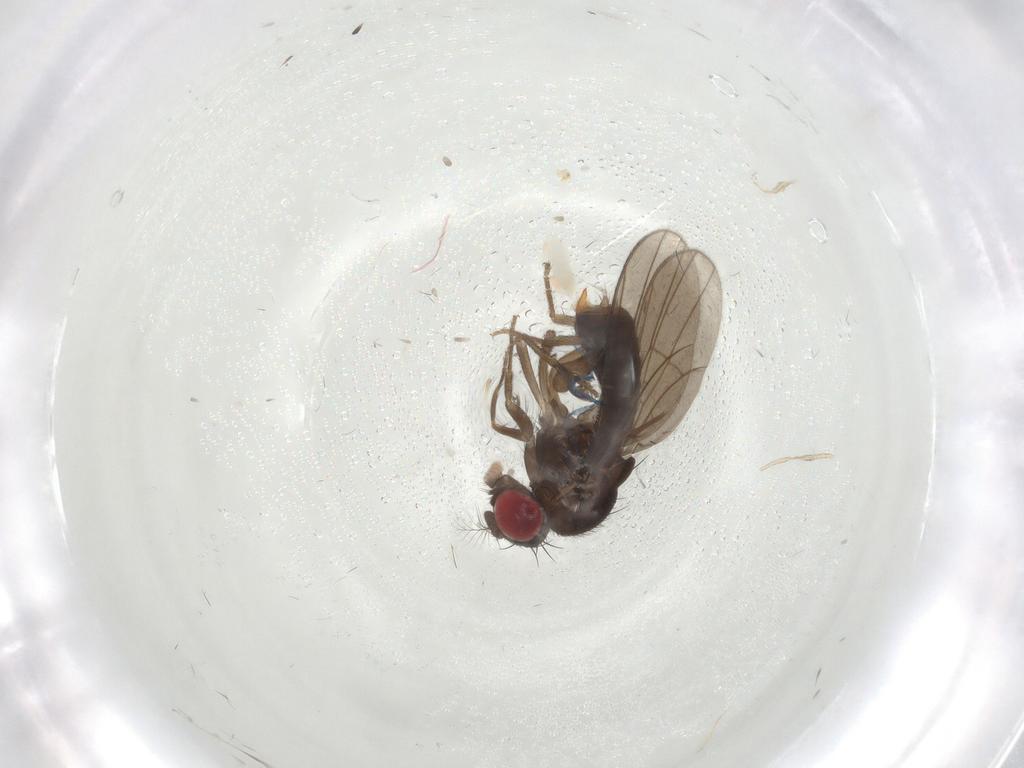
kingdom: Animalia
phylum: Arthropoda
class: Insecta
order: Diptera
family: Drosophilidae
